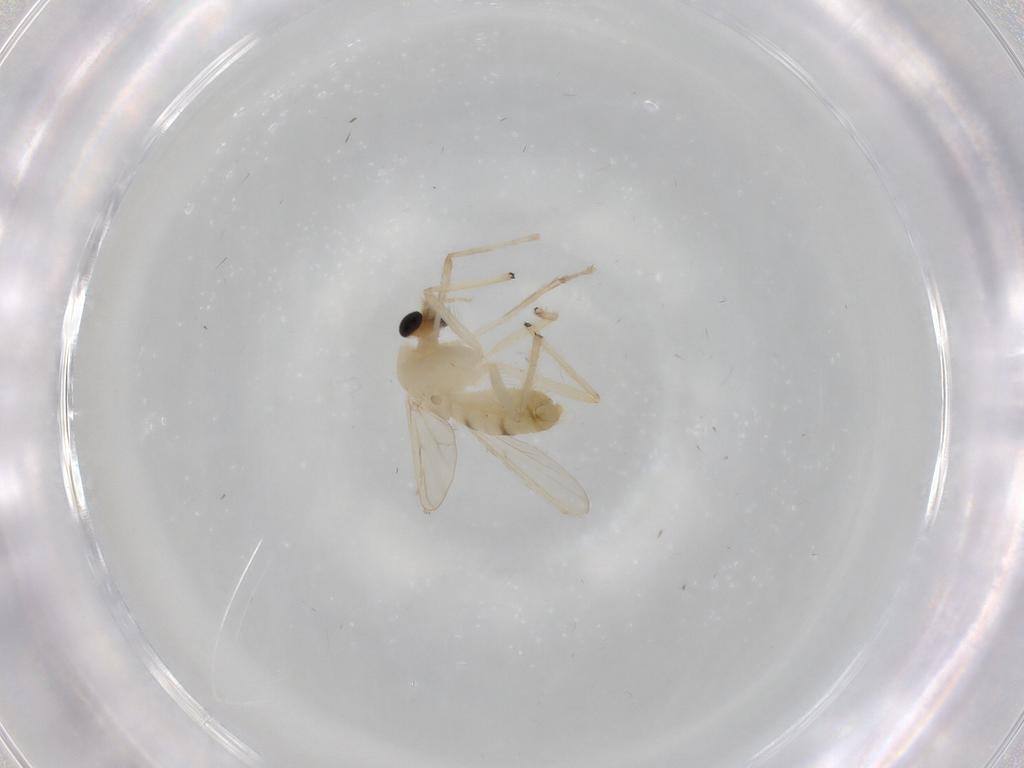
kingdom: Animalia
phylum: Arthropoda
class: Insecta
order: Diptera
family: Chironomidae
